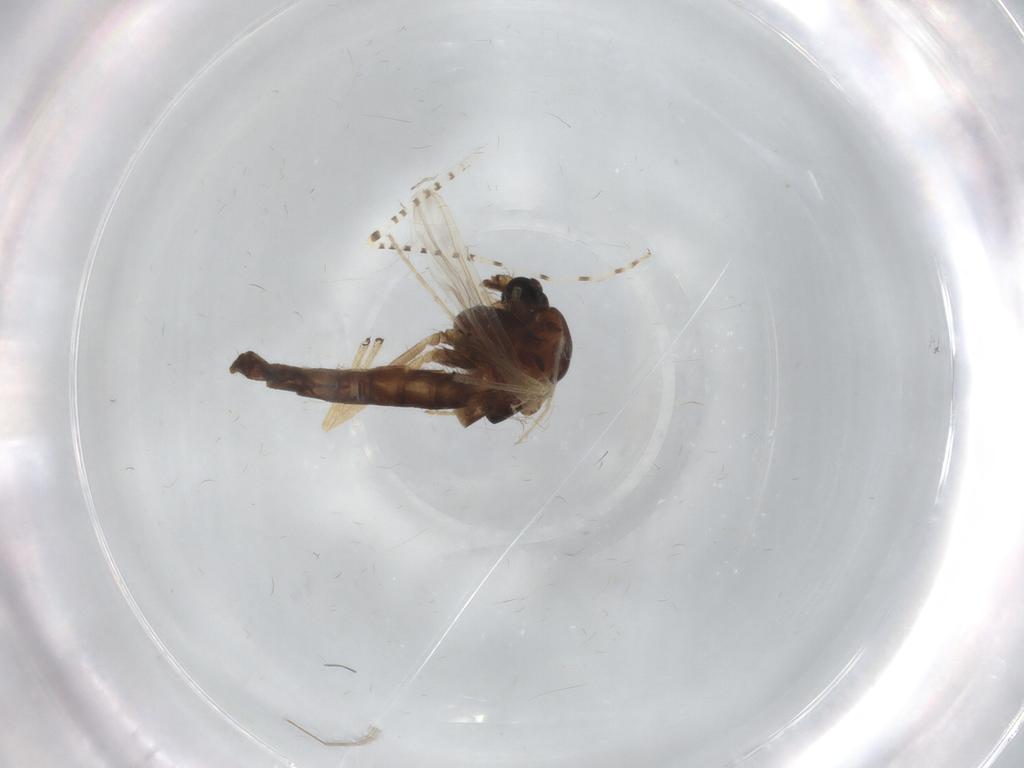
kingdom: Animalia
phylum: Arthropoda
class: Insecta
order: Diptera
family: Chironomidae
